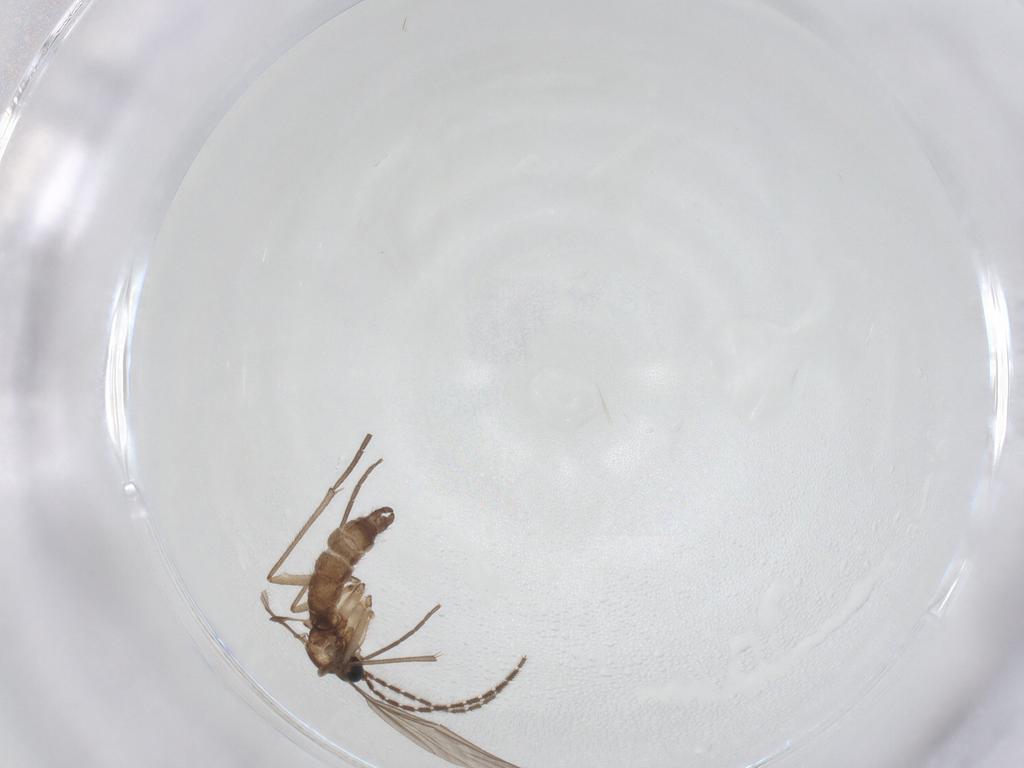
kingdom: Animalia
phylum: Arthropoda
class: Insecta
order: Diptera
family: Sciaridae
